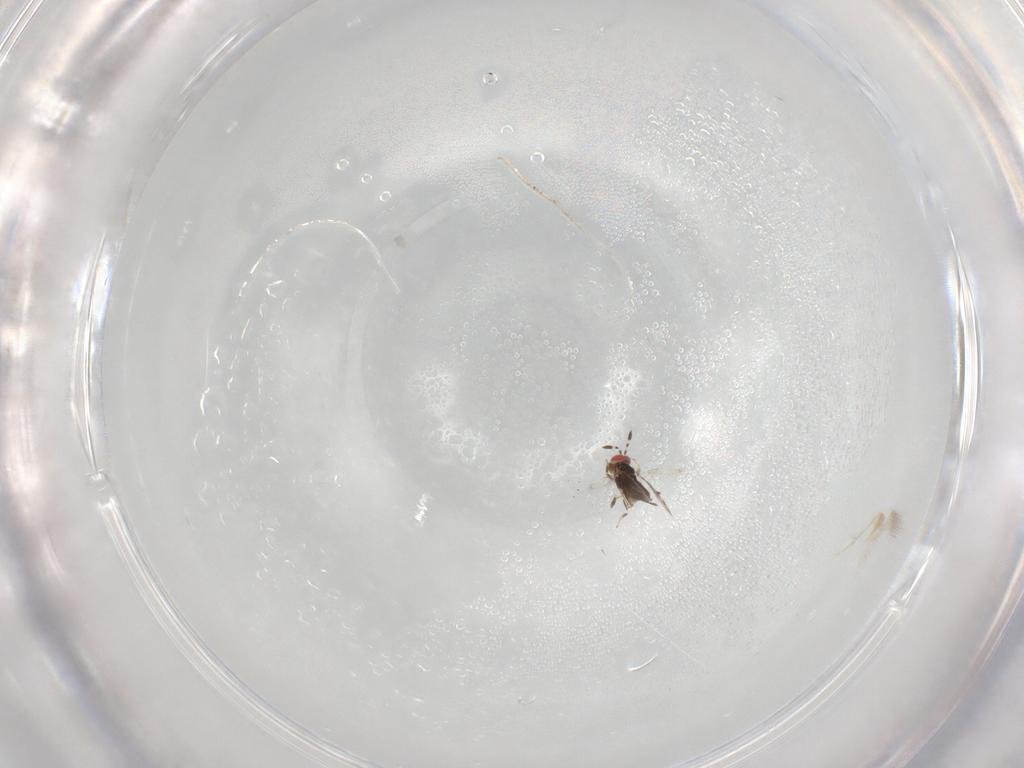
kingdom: Animalia
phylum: Arthropoda
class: Insecta
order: Hymenoptera
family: Azotidae
